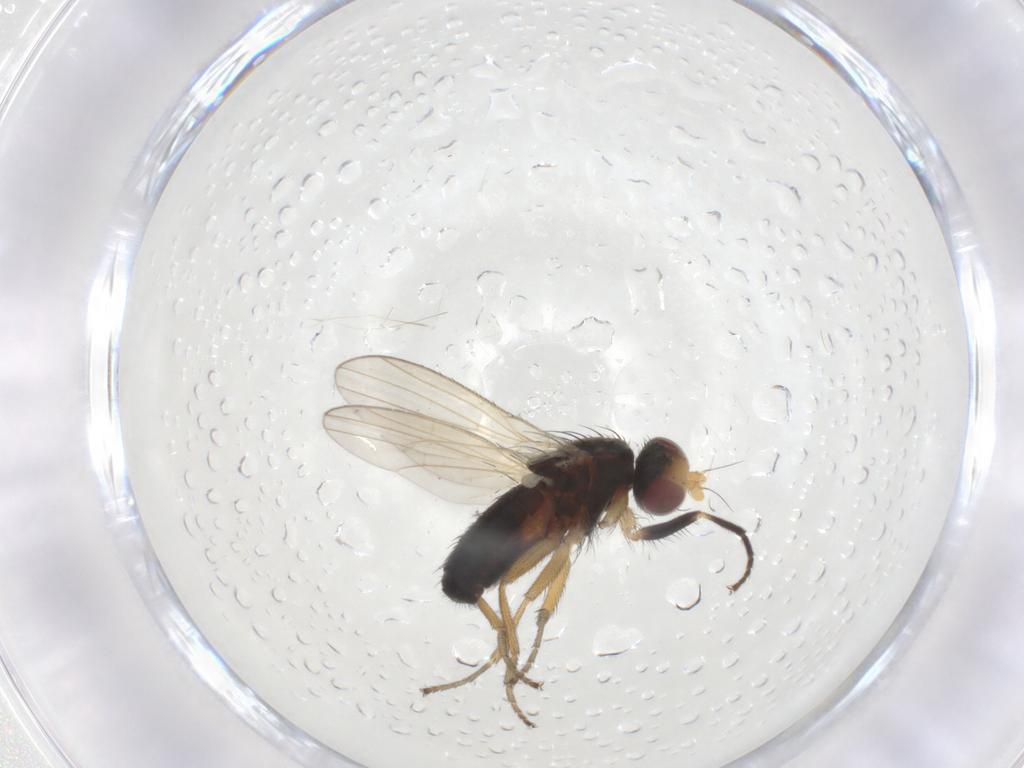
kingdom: Animalia
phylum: Arthropoda
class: Insecta
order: Diptera
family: Heleomyzidae
